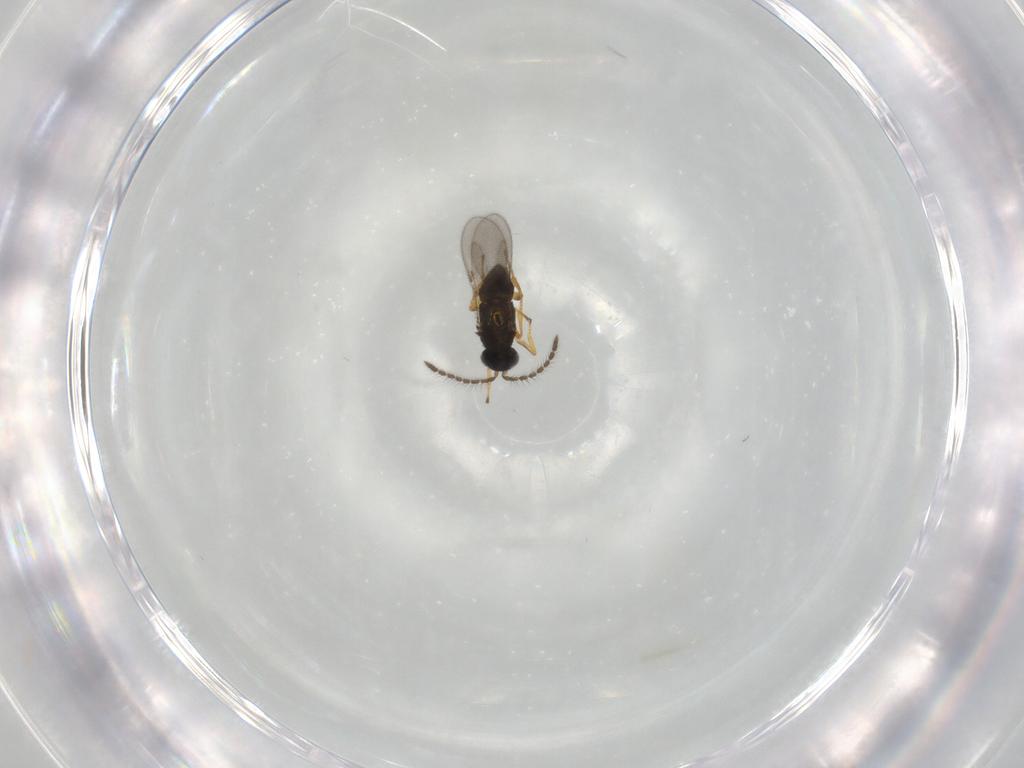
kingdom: Animalia
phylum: Arthropoda
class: Insecta
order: Hymenoptera
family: Encyrtidae
